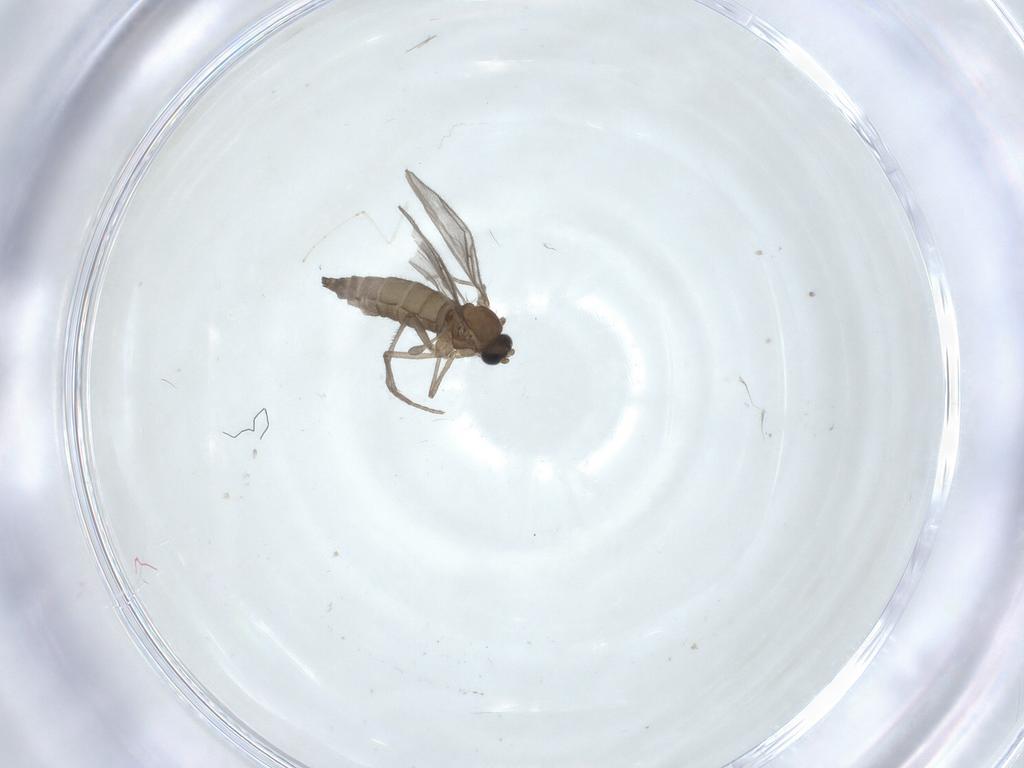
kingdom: Animalia
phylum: Arthropoda
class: Insecta
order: Diptera
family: Sciaridae
